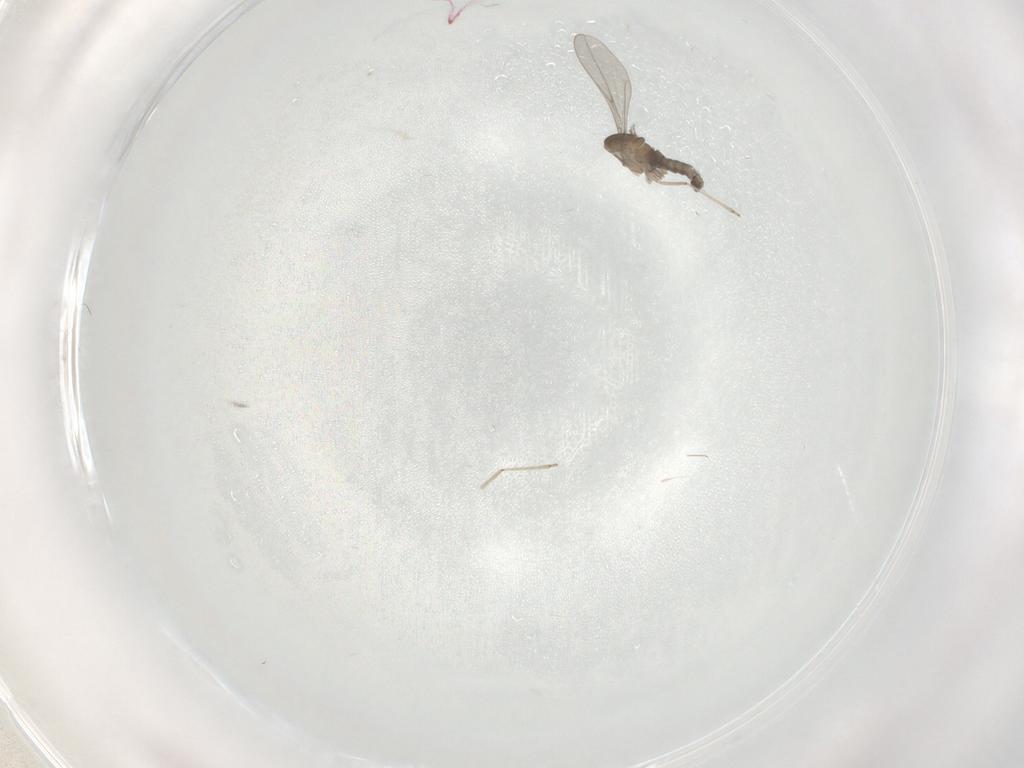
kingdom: Animalia
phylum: Arthropoda
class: Insecta
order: Diptera
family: Cecidomyiidae
